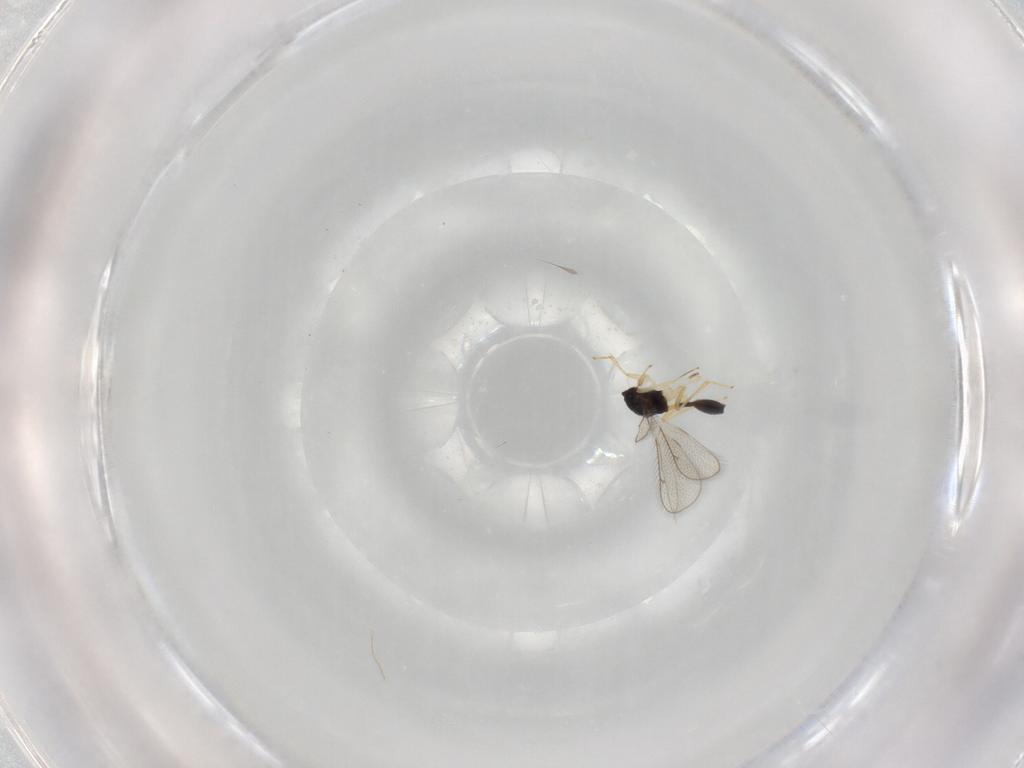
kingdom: Animalia
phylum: Arthropoda
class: Insecta
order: Hymenoptera
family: Diparidae
